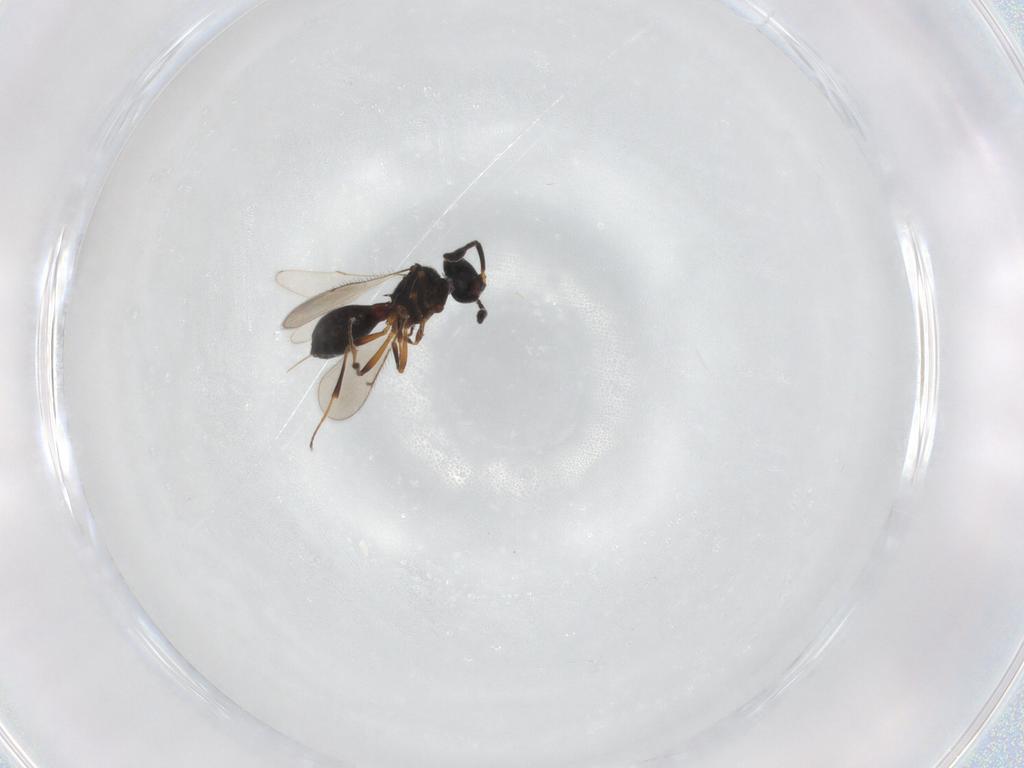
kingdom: Animalia
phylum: Arthropoda
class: Insecta
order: Hymenoptera
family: Scelionidae
